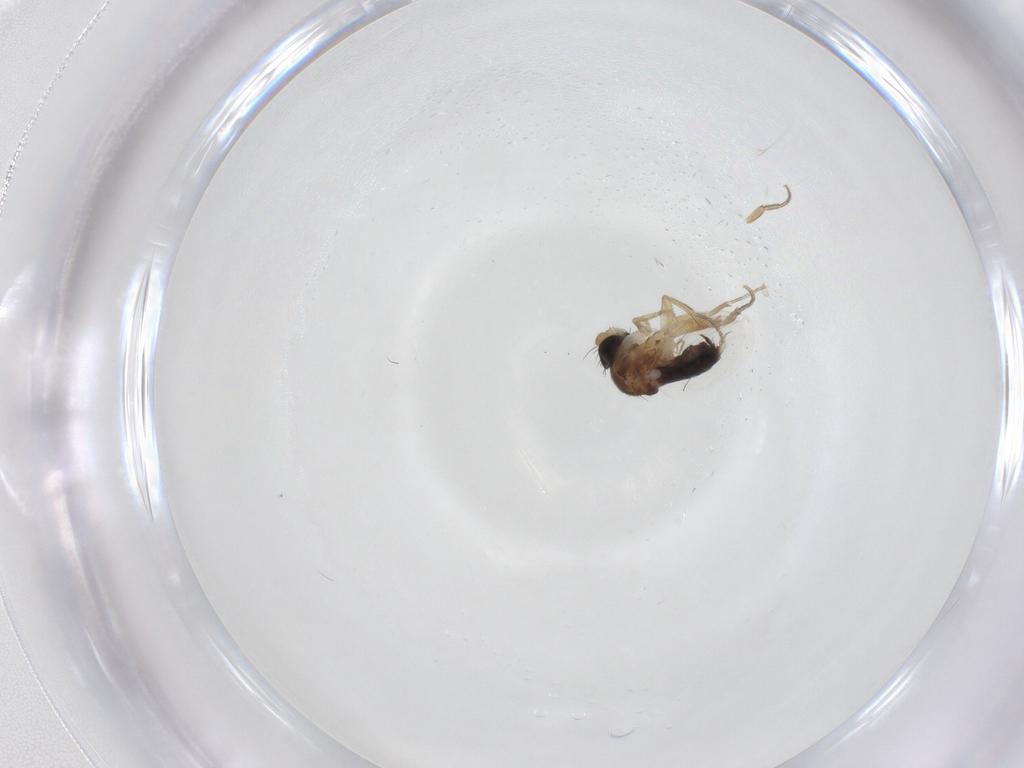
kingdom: Animalia
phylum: Arthropoda
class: Insecta
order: Diptera
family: Phoridae
